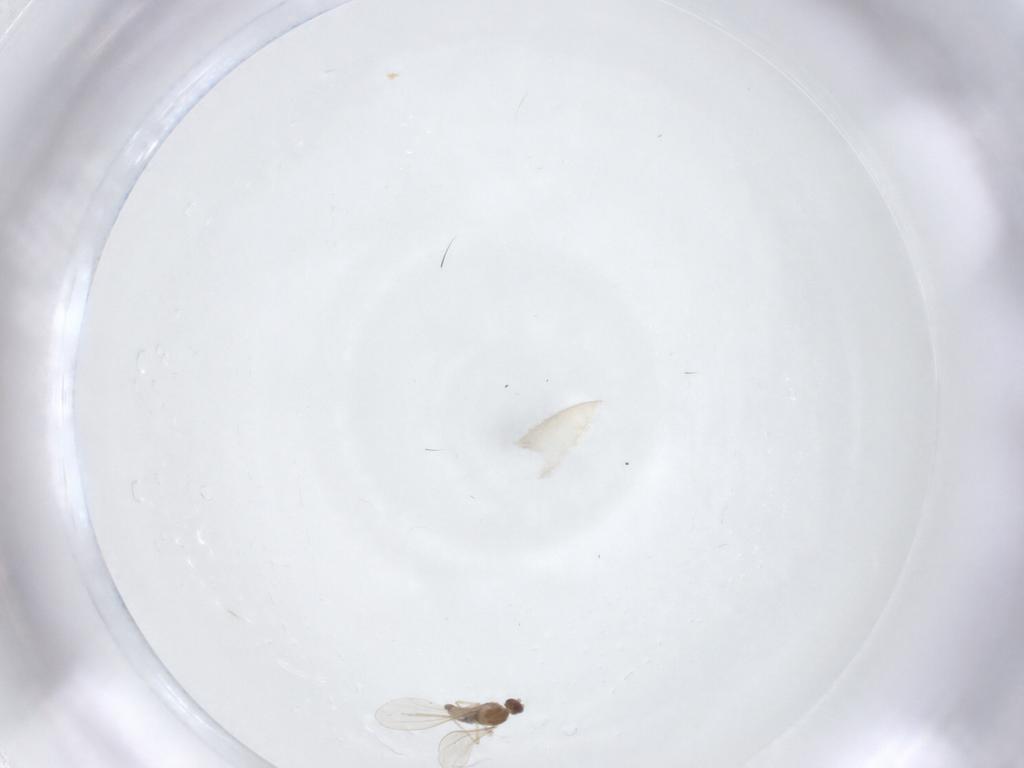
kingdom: Animalia
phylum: Arthropoda
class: Insecta
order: Diptera
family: Cecidomyiidae
